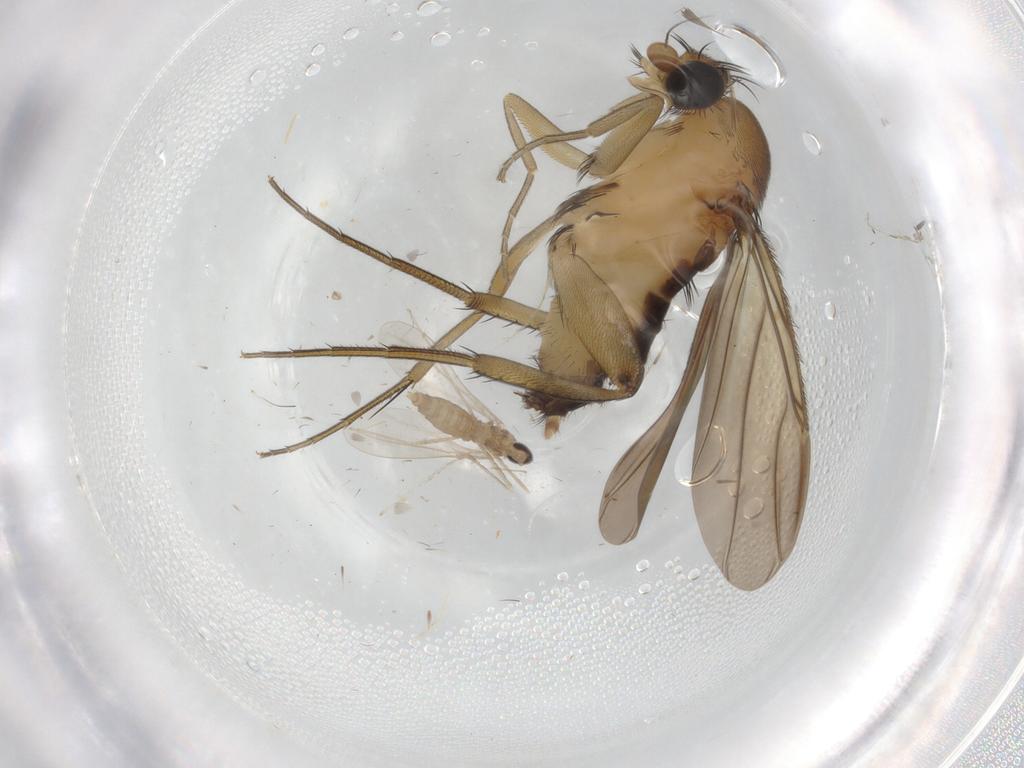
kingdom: Animalia
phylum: Arthropoda
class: Insecta
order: Diptera
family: Phoridae
